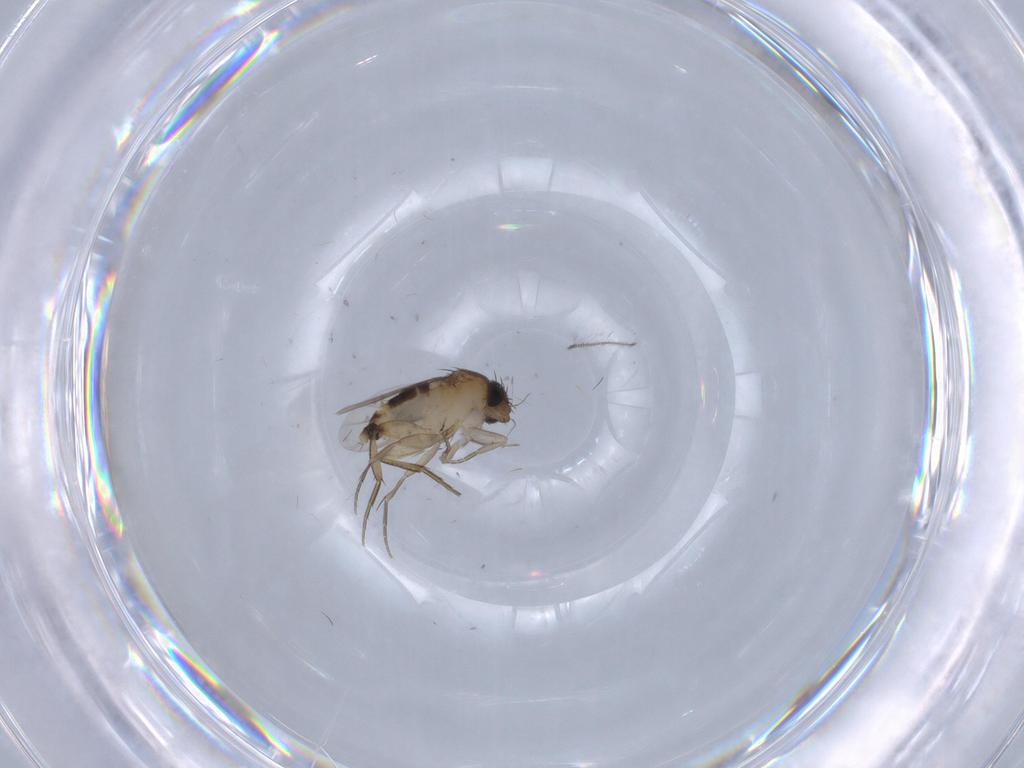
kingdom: Animalia
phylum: Arthropoda
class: Insecta
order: Diptera
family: Phoridae
